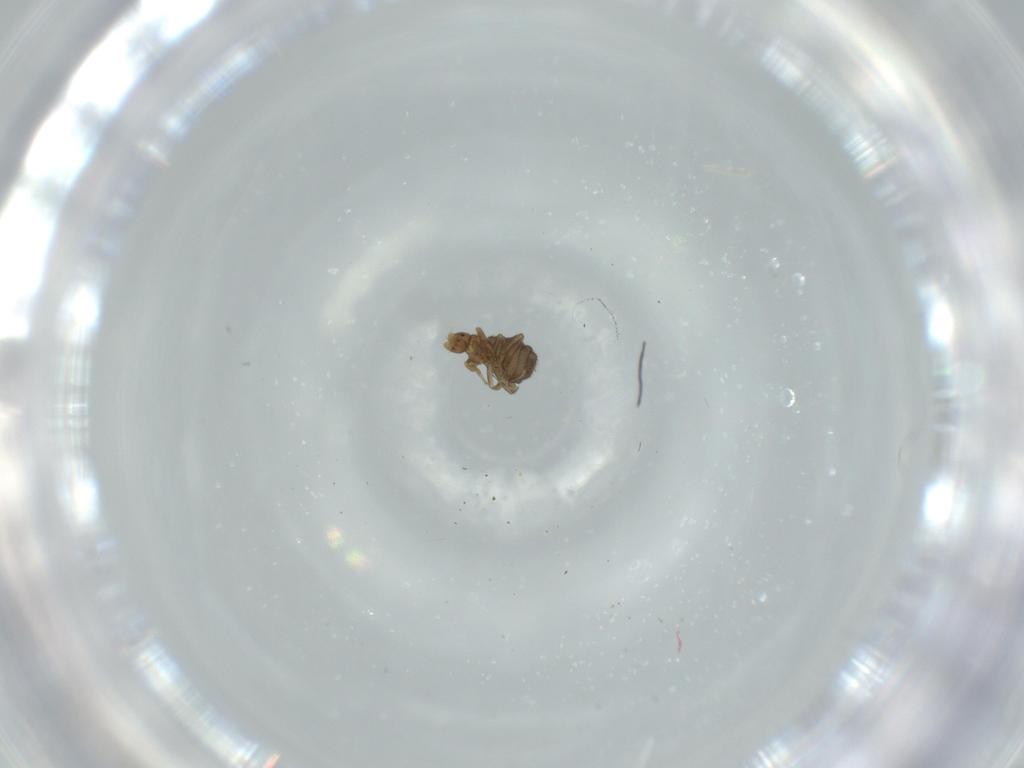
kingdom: Animalia
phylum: Arthropoda
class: Insecta
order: Diptera
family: Phoridae
